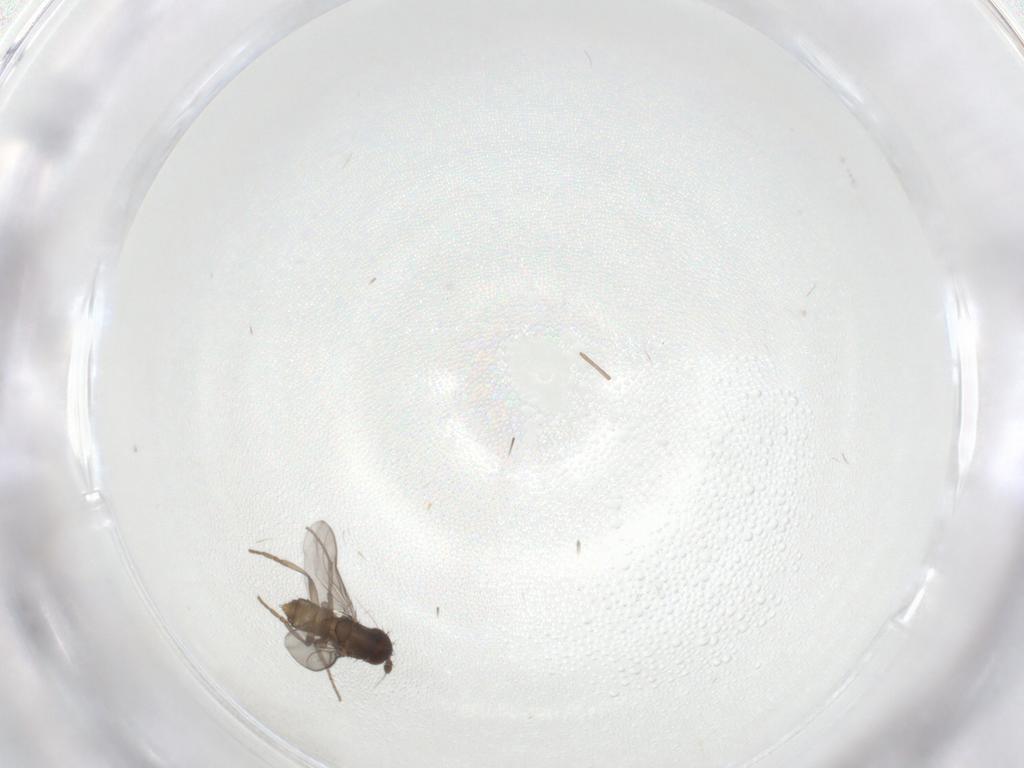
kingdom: Animalia
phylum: Arthropoda
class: Insecta
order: Diptera
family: Sphaeroceridae
